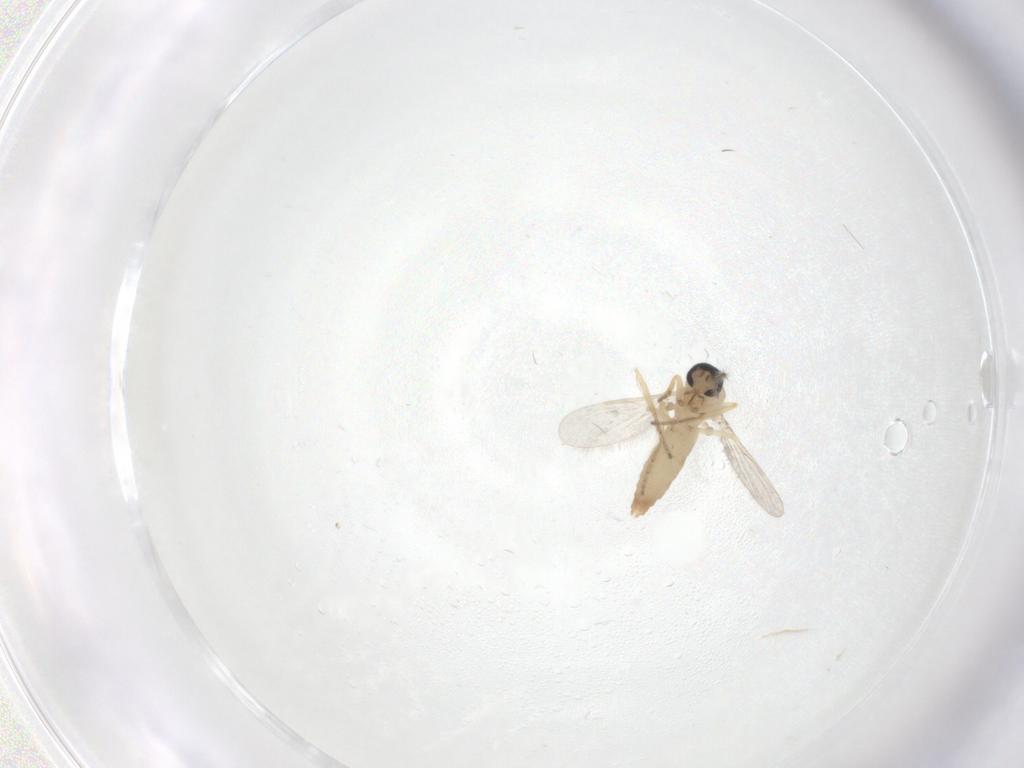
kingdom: Animalia
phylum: Arthropoda
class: Insecta
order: Diptera
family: Ceratopogonidae
